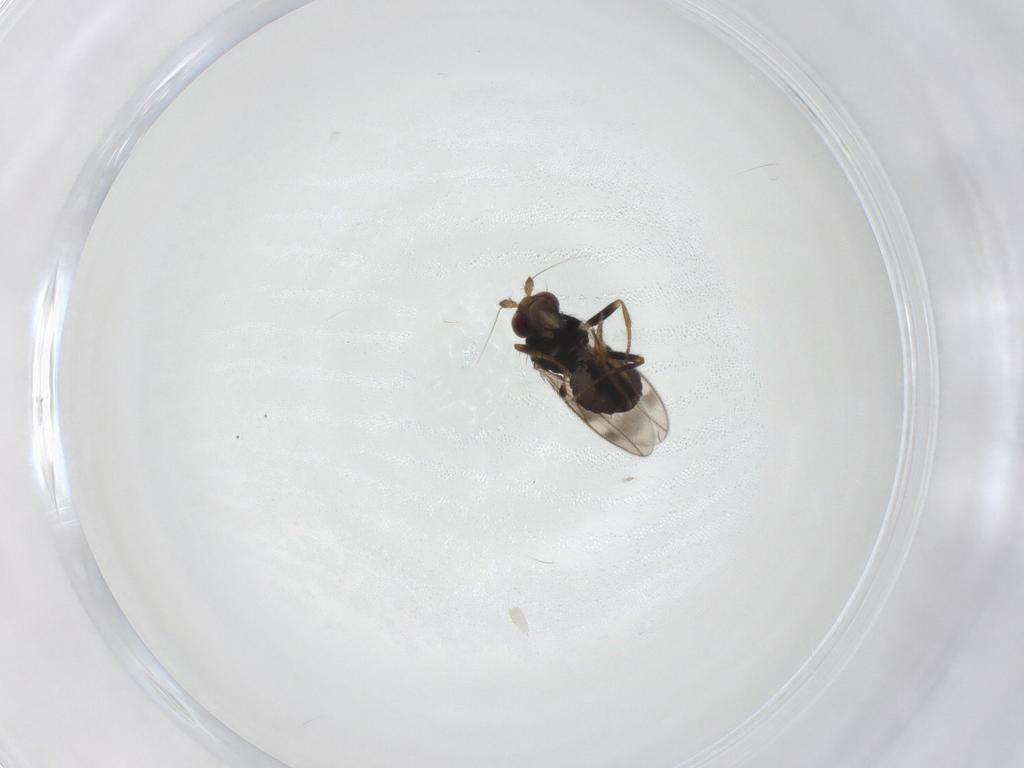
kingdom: Animalia
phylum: Arthropoda
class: Insecta
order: Diptera
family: Sphaeroceridae
